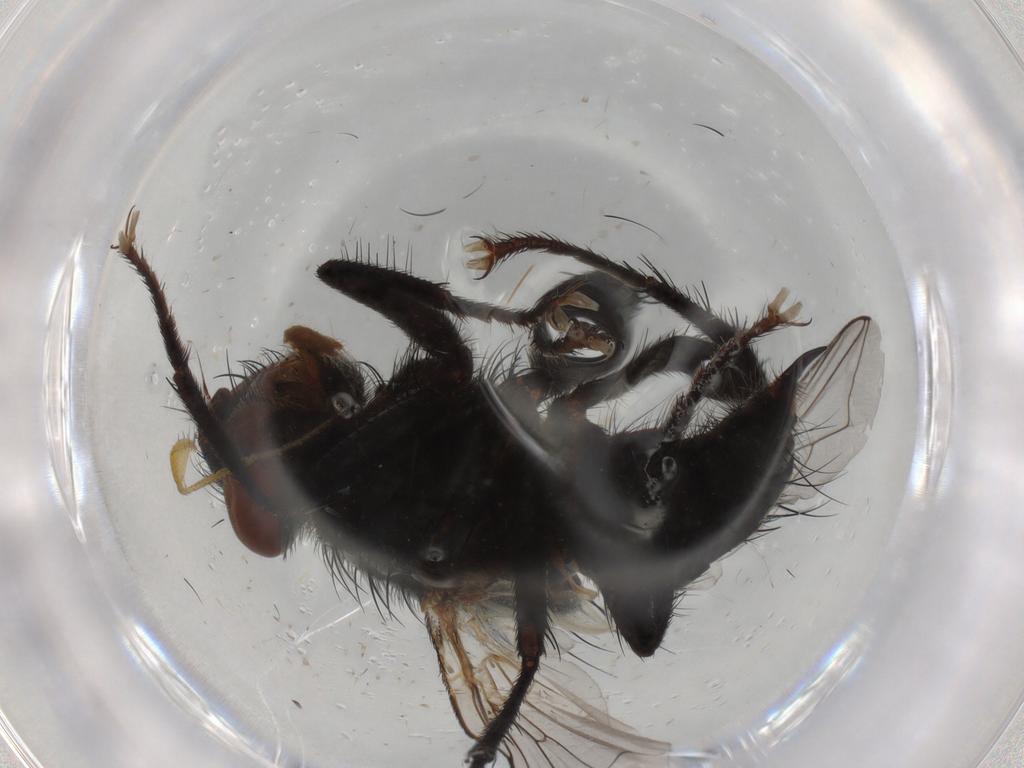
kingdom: Animalia
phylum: Arthropoda
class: Insecta
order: Diptera
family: Sarcophagidae
